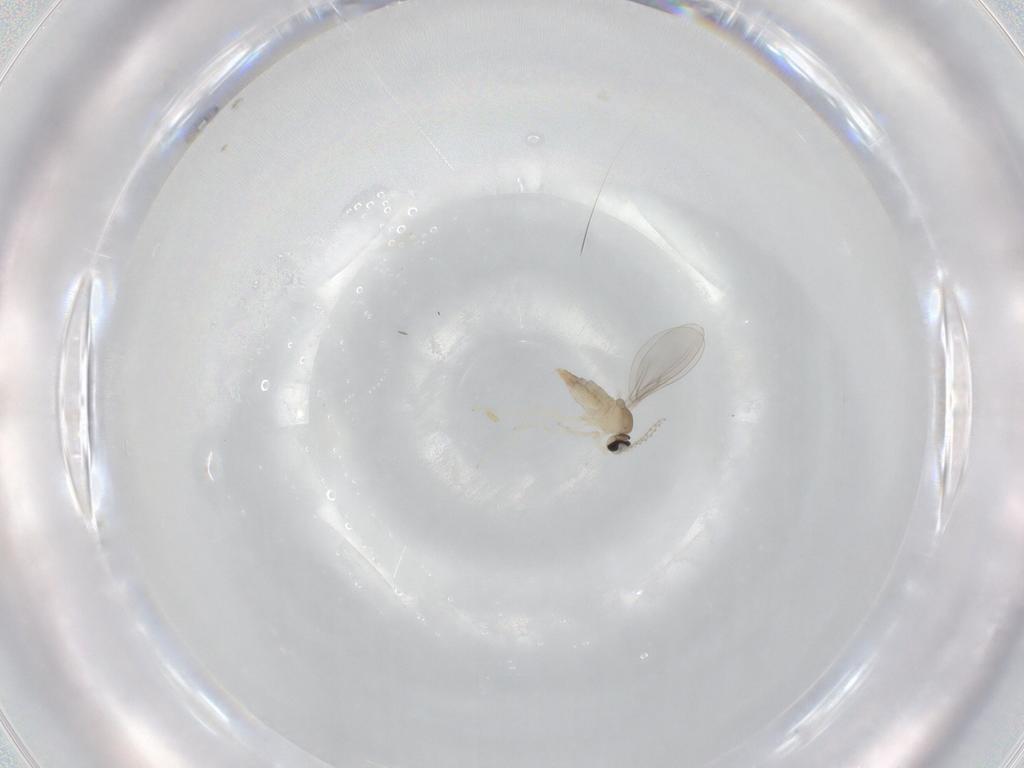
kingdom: Animalia
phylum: Arthropoda
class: Insecta
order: Diptera
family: Cecidomyiidae
